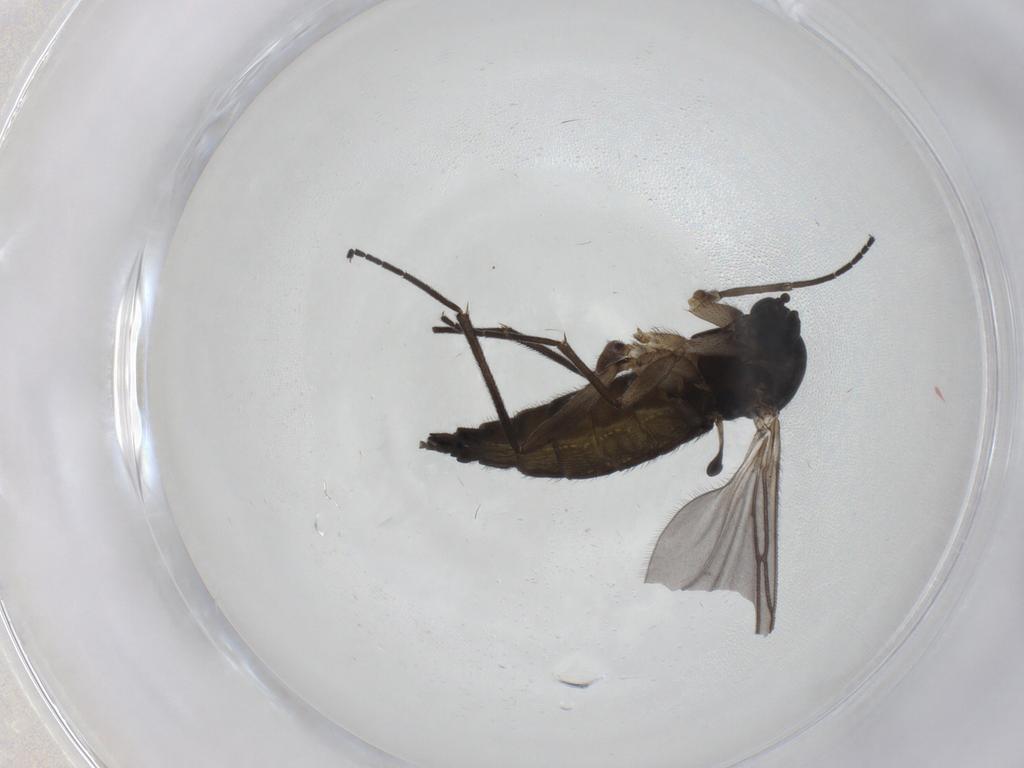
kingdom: Animalia
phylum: Arthropoda
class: Insecta
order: Diptera
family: Sciaridae
